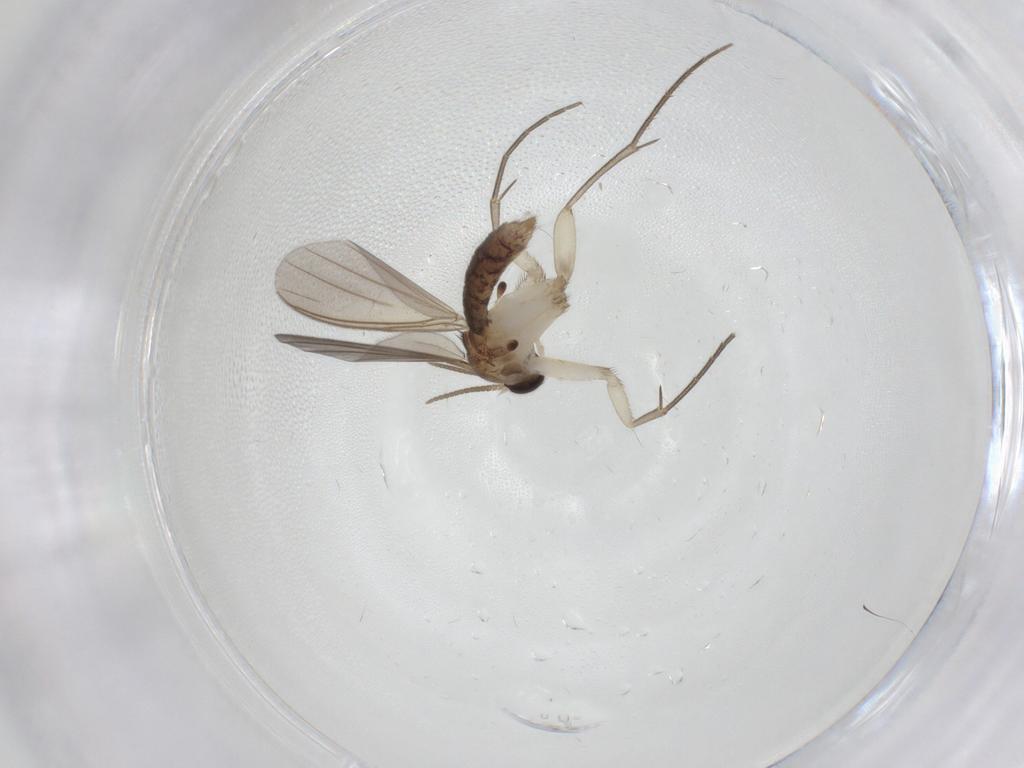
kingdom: Animalia
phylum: Arthropoda
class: Insecta
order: Diptera
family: Mycetophilidae
